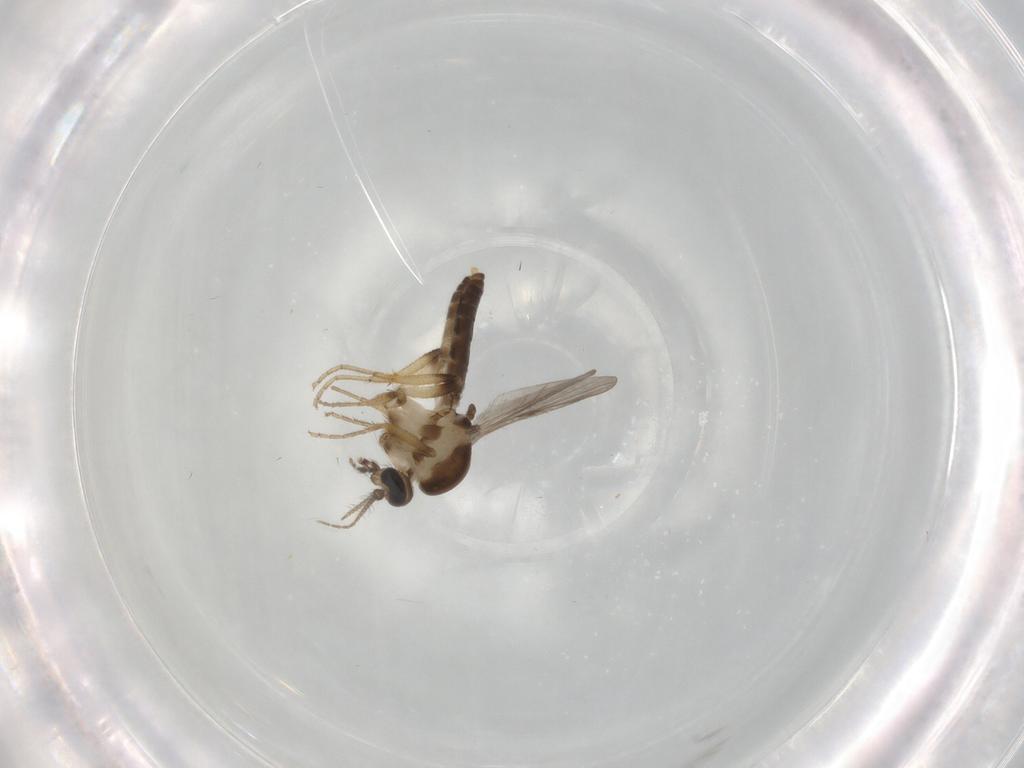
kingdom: Animalia
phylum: Arthropoda
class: Insecta
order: Diptera
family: Ceratopogonidae
